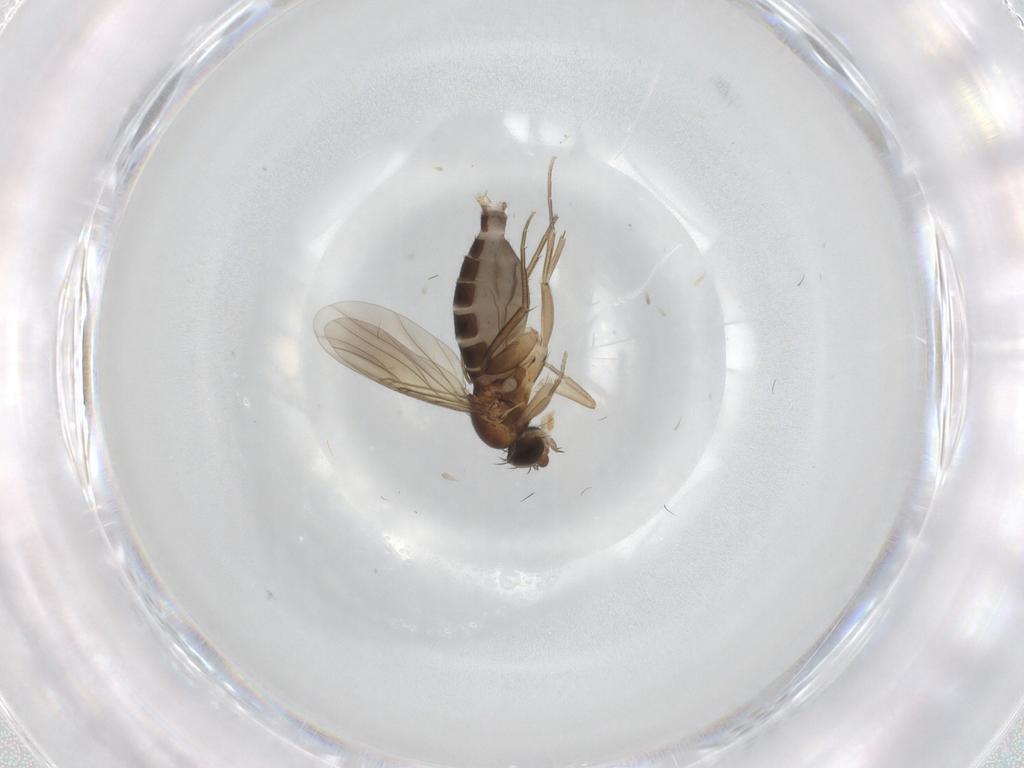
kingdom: Animalia
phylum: Arthropoda
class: Insecta
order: Diptera
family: Phoridae
